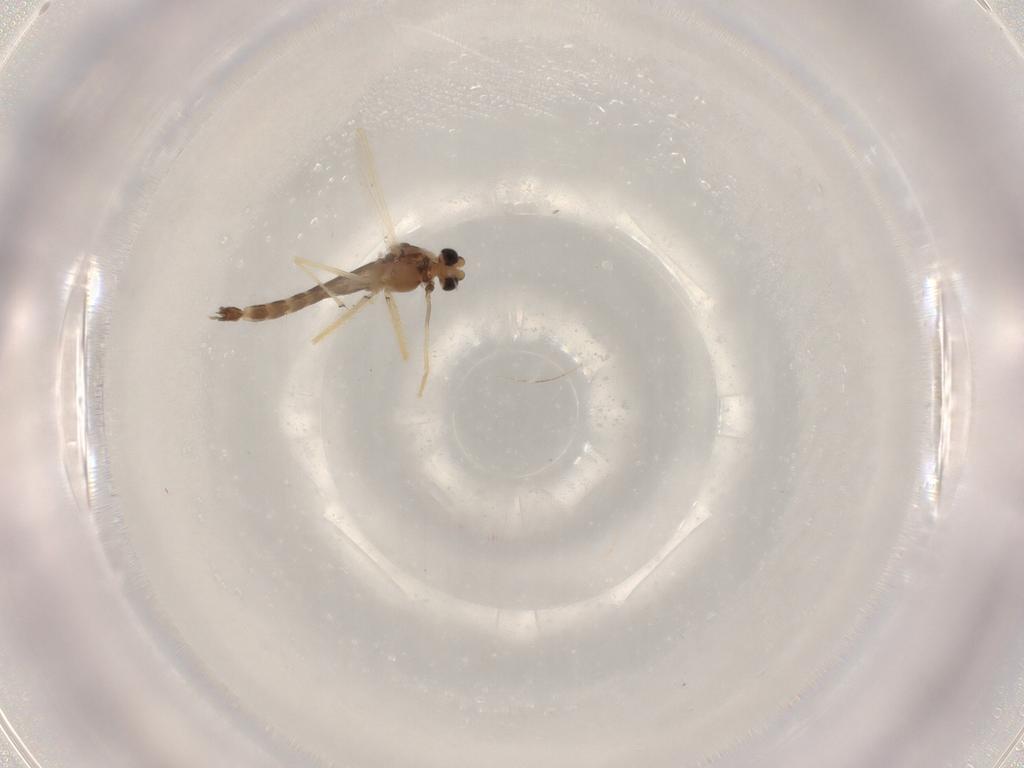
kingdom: Animalia
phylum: Arthropoda
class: Insecta
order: Diptera
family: Chironomidae
